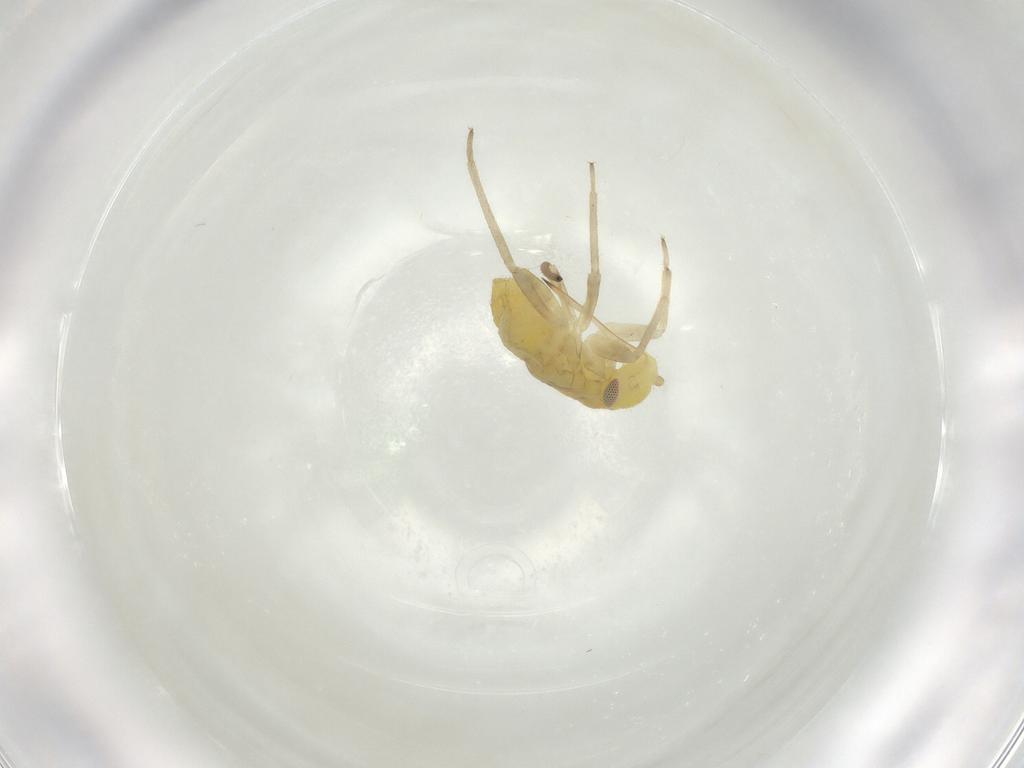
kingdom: Animalia
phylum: Arthropoda
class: Insecta
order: Hemiptera
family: Miridae
